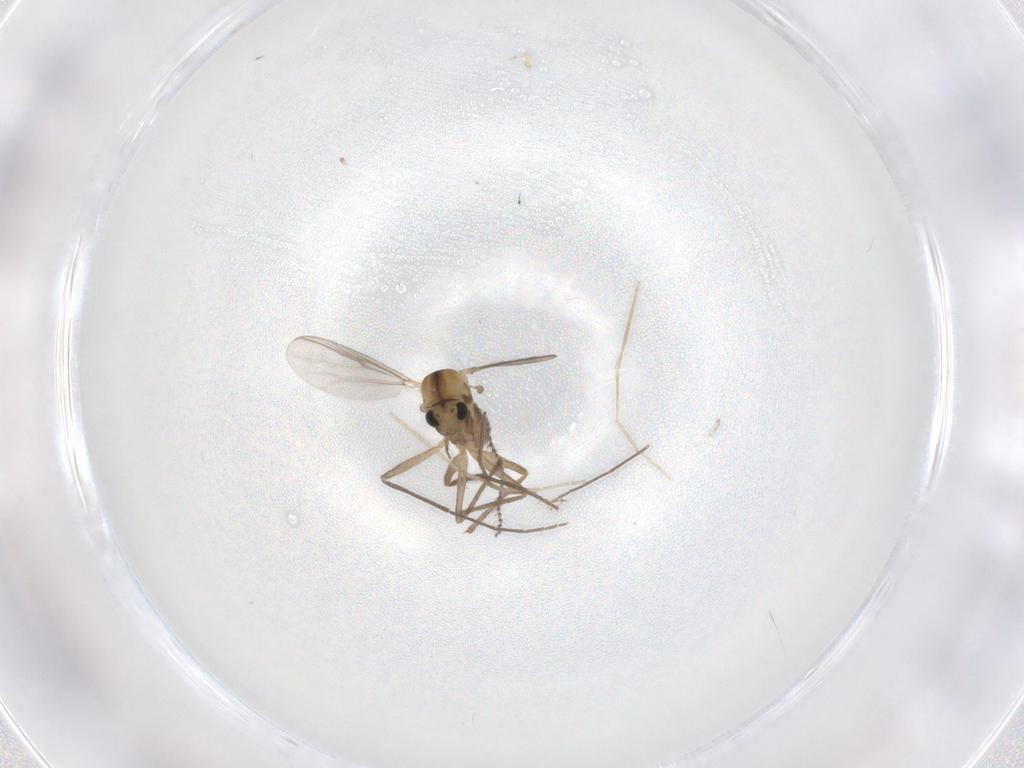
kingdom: Animalia
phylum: Arthropoda
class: Insecta
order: Diptera
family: Chironomidae
